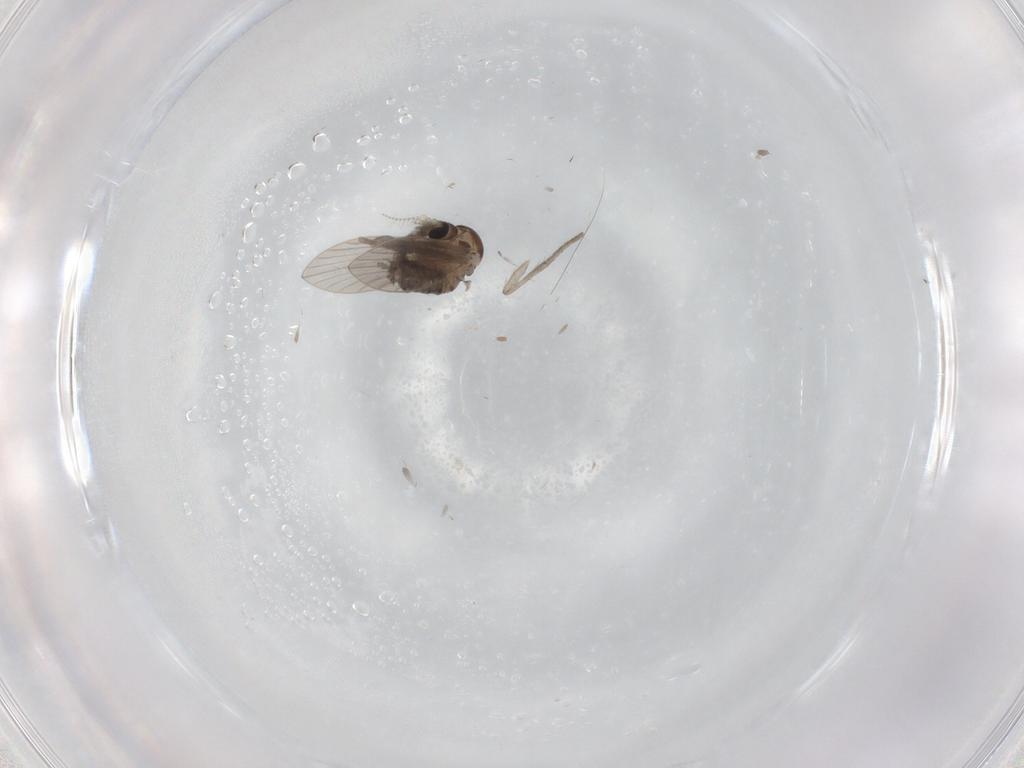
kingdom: Animalia
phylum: Arthropoda
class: Insecta
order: Diptera
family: Psychodidae
